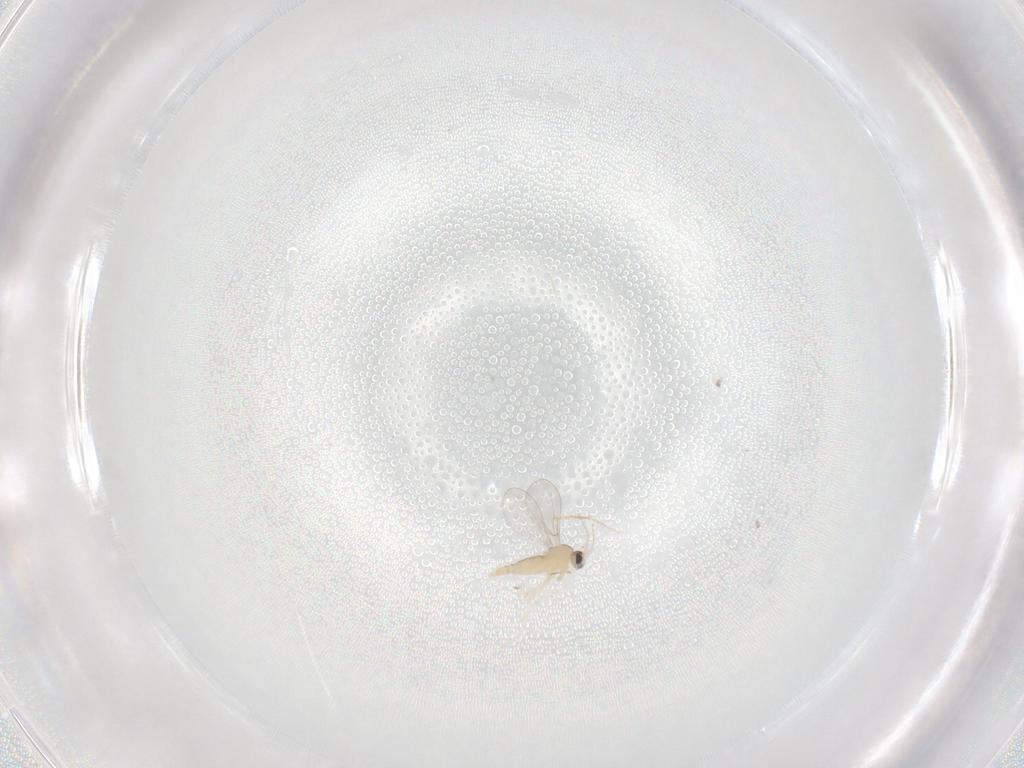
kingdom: Animalia
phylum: Arthropoda
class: Insecta
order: Diptera
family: Cecidomyiidae
